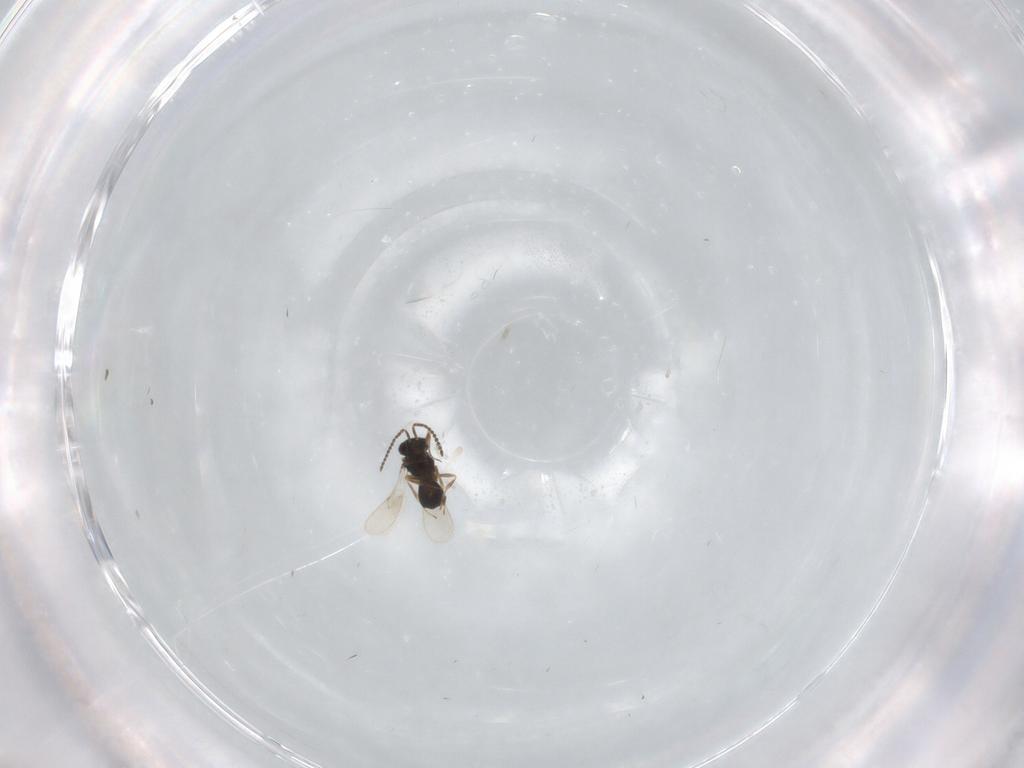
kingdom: Animalia
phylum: Arthropoda
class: Insecta
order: Hymenoptera
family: Scelionidae
